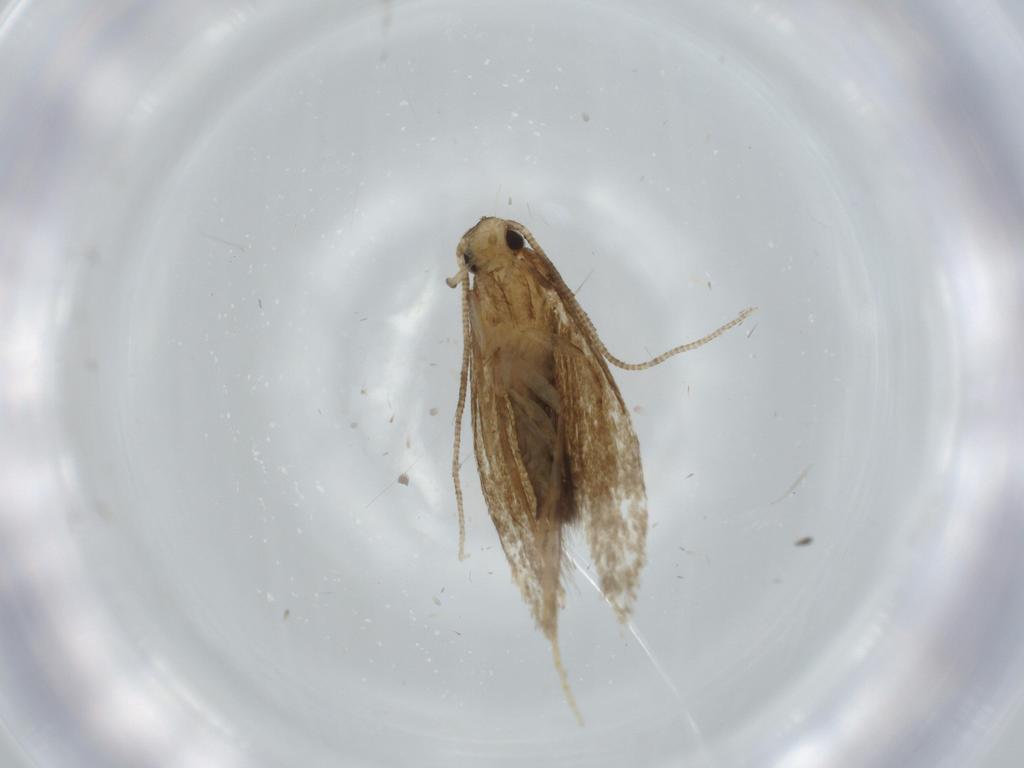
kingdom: Animalia
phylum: Arthropoda
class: Insecta
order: Lepidoptera
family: Tineidae
